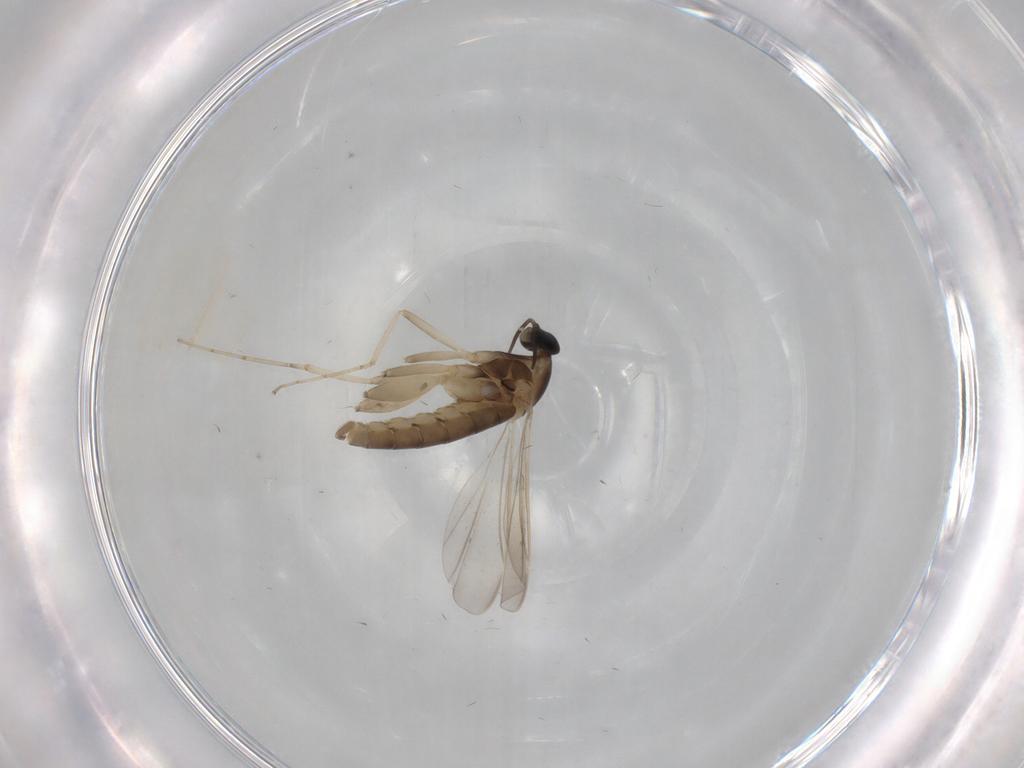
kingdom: Animalia
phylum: Arthropoda
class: Insecta
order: Diptera
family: Cecidomyiidae
